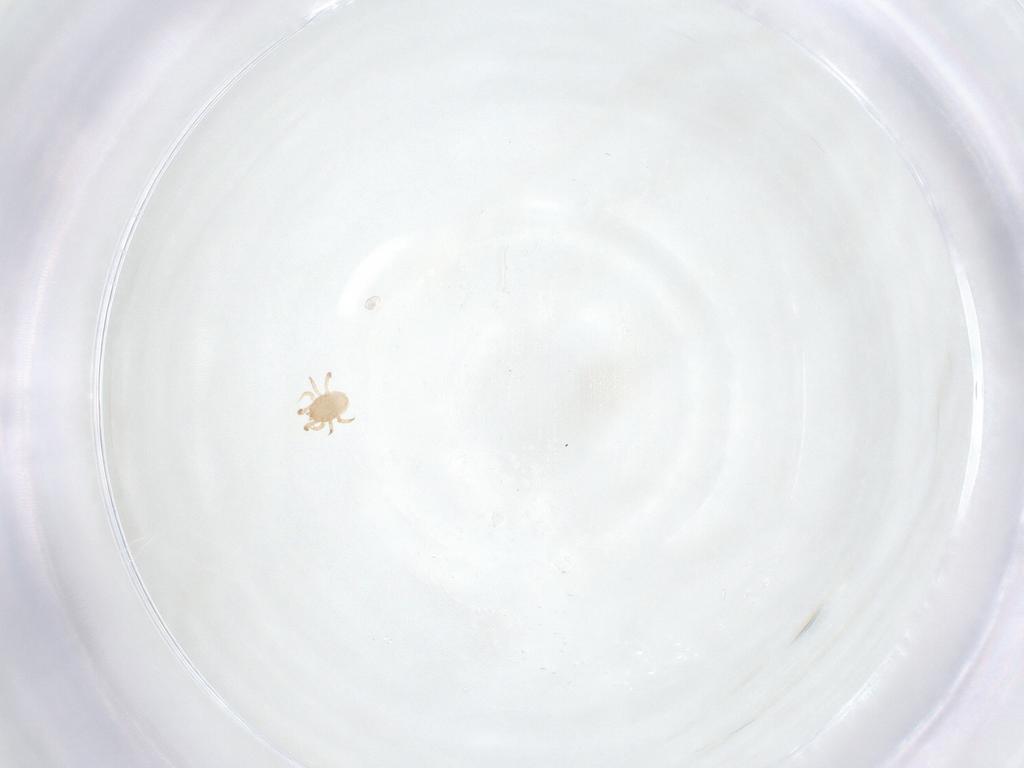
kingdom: Animalia
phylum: Arthropoda
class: Arachnida
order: Mesostigmata
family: Ameroseiidae
